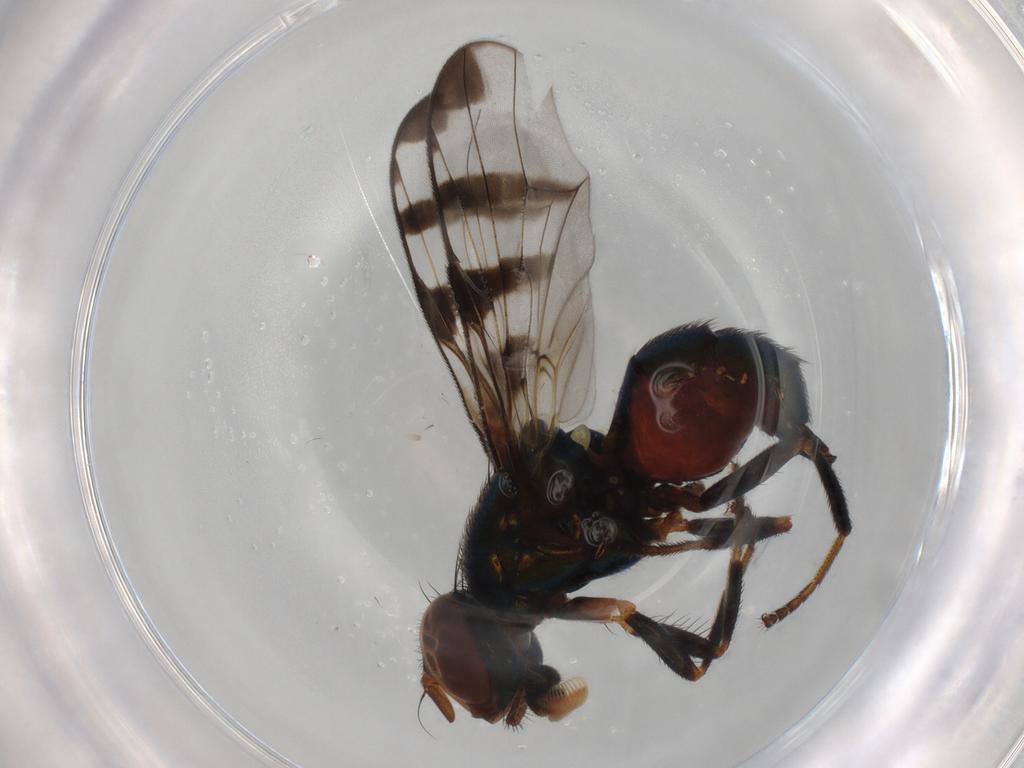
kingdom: Animalia
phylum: Arthropoda
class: Insecta
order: Diptera
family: Platystomatidae
